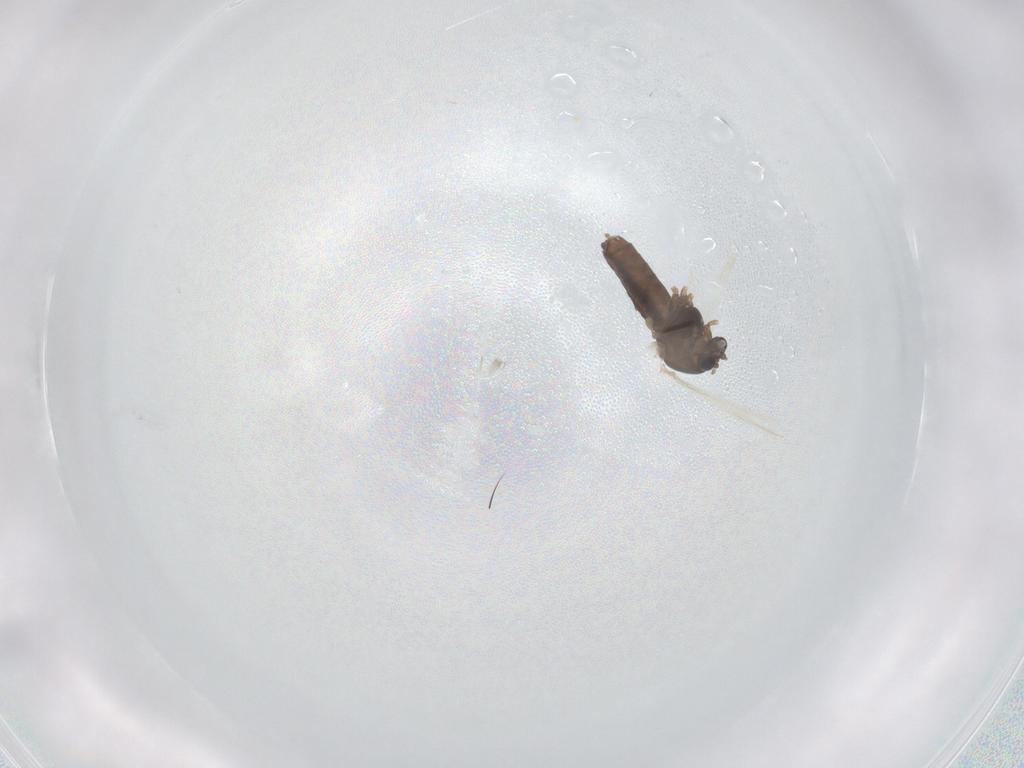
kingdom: Animalia
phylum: Arthropoda
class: Insecta
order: Diptera
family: Chironomidae
